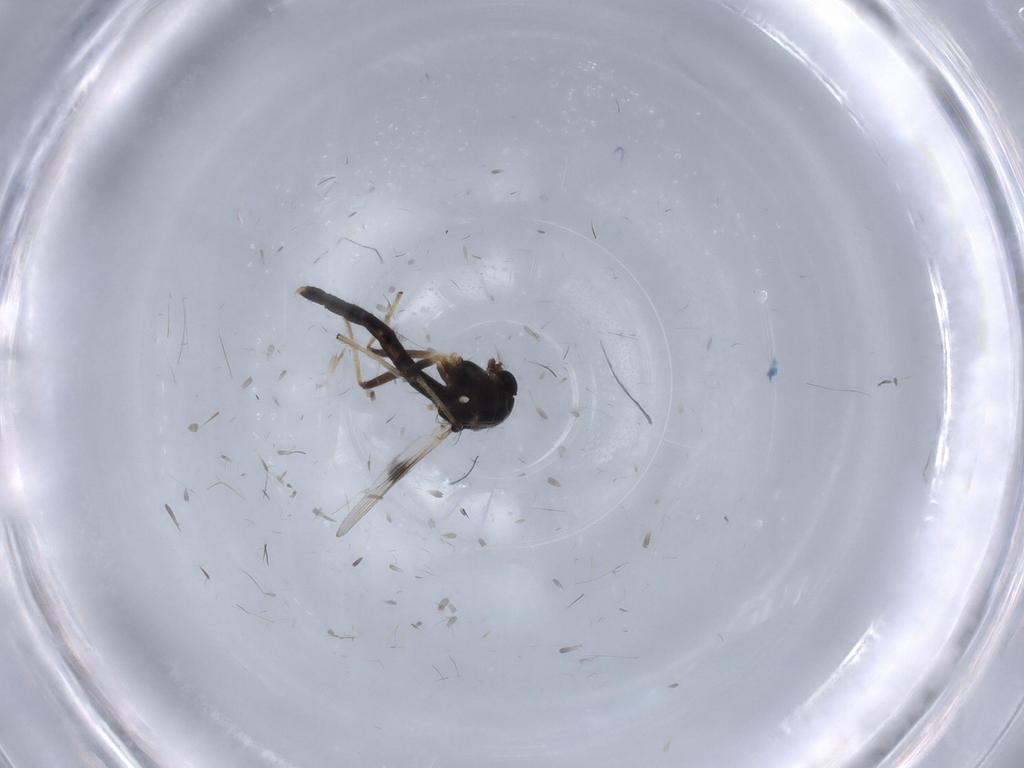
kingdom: Animalia
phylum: Arthropoda
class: Insecta
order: Diptera
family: Chironomidae
